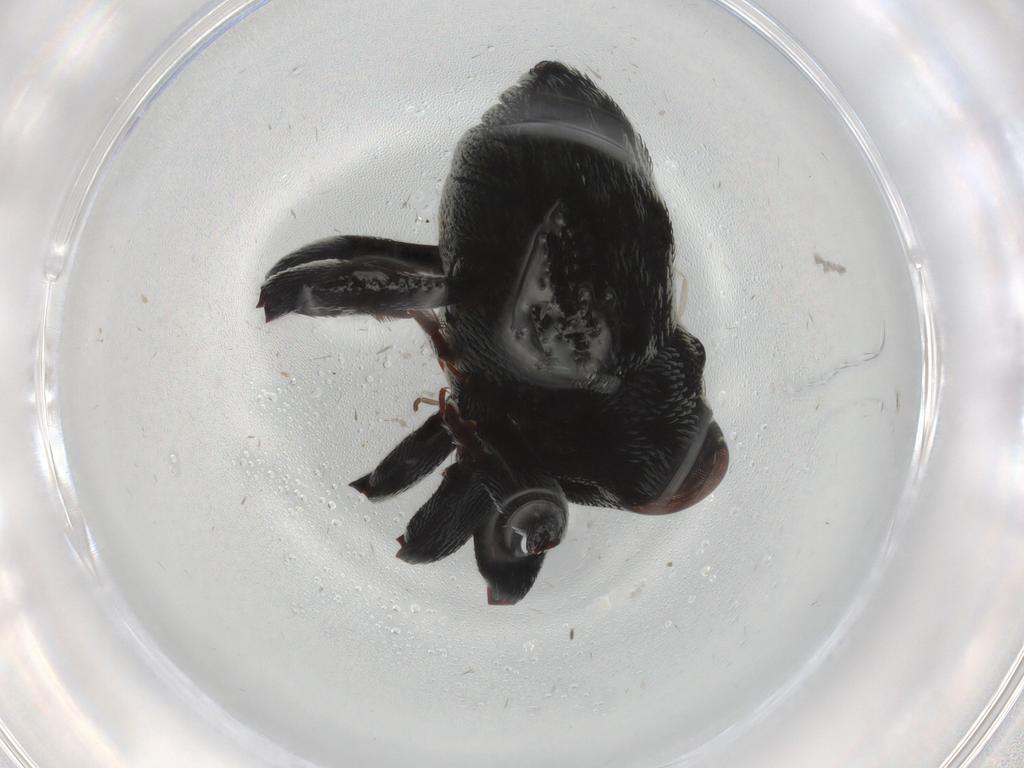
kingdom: Animalia
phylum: Arthropoda
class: Insecta
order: Coleoptera
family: Curculionidae
